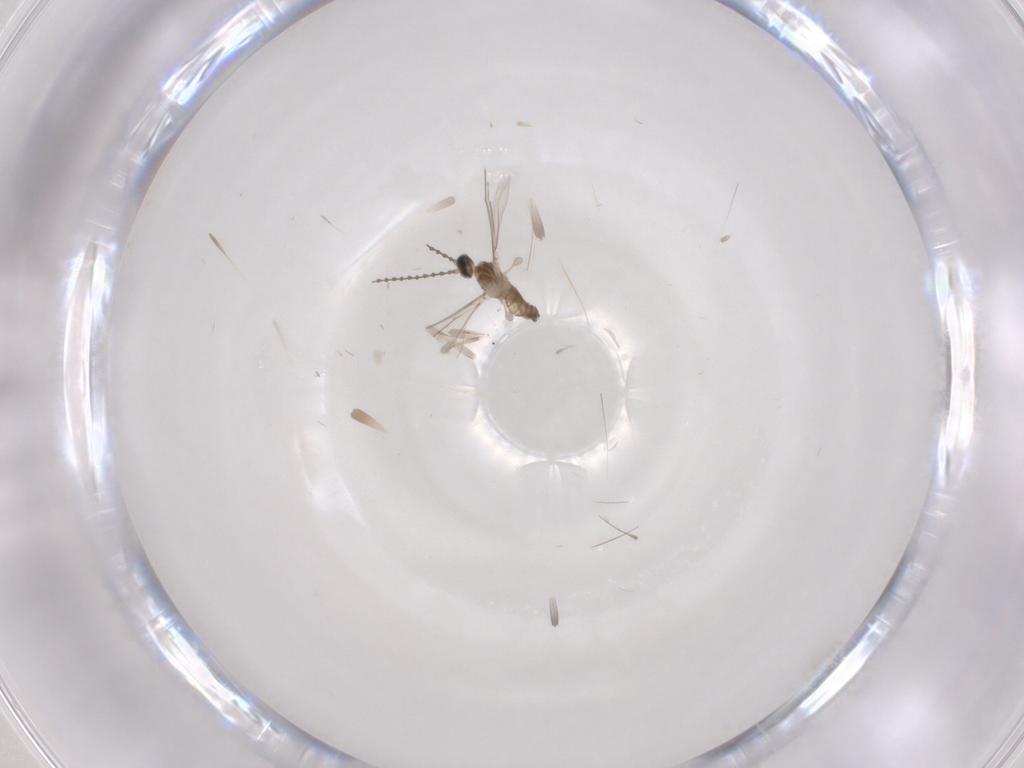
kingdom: Animalia
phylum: Arthropoda
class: Insecta
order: Diptera
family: Cecidomyiidae
